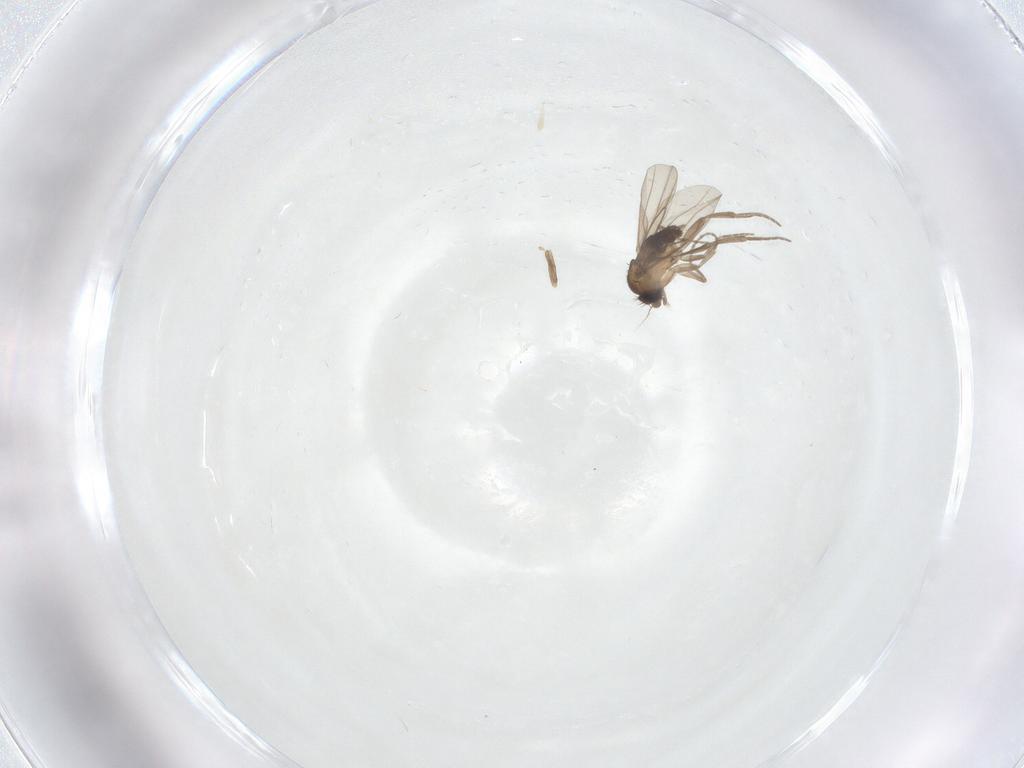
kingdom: Animalia
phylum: Arthropoda
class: Insecta
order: Diptera
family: Cecidomyiidae
